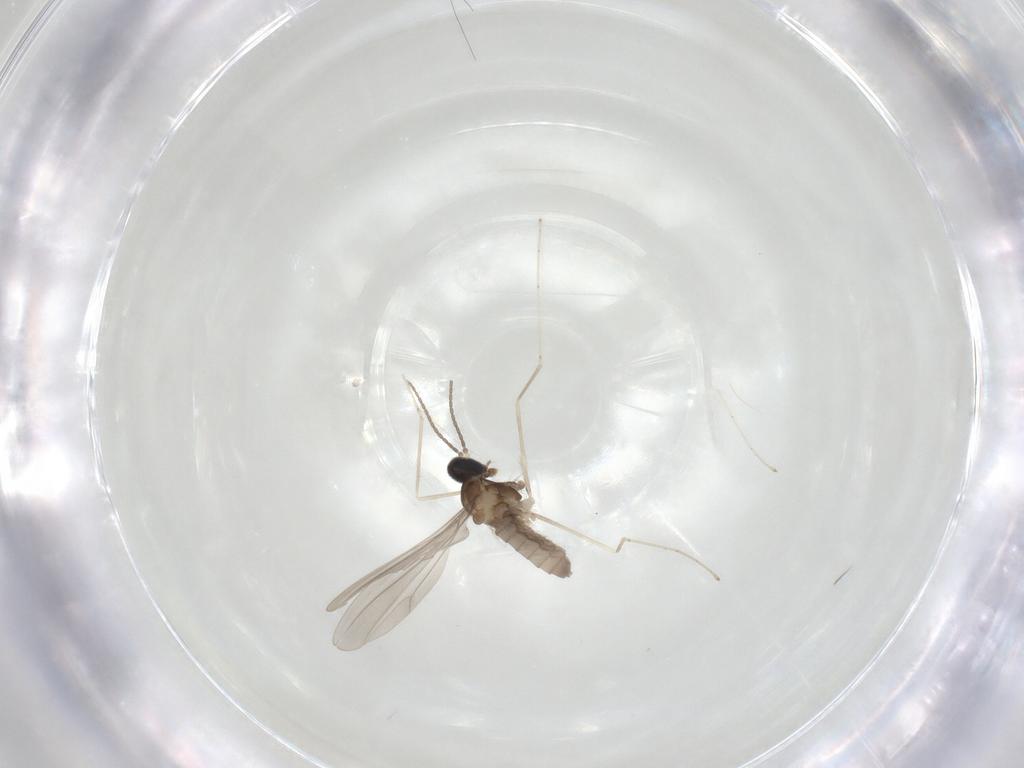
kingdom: Animalia
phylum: Arthropoda
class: Insecta
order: Diptera
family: Cecidomyiidae
